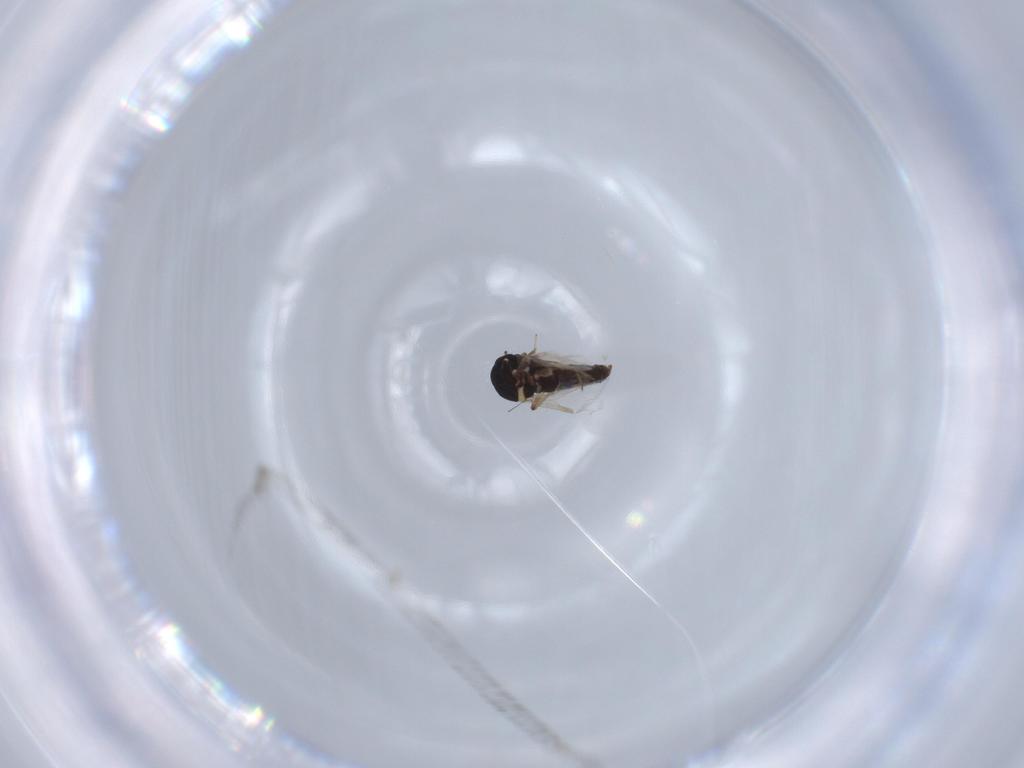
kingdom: Animalia
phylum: Arthropoda
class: Insecta
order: Diptera
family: Ceratopogonidae
